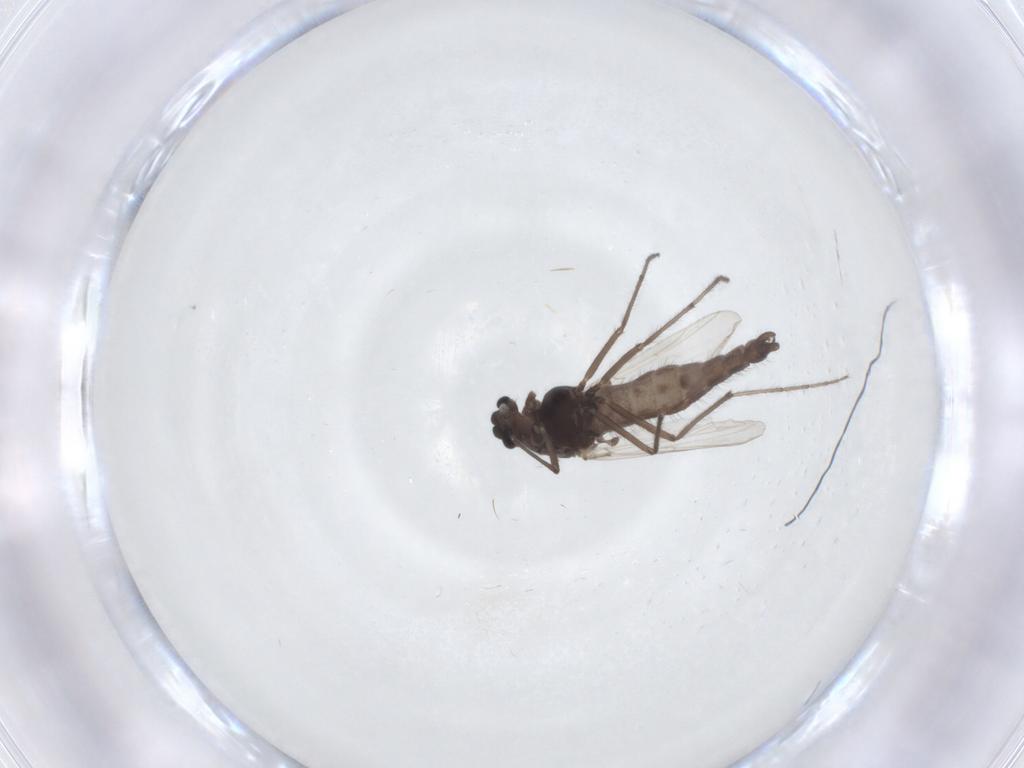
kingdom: Animalia
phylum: Arthropoda
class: Insecta
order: Diptera
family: Chironomidae
